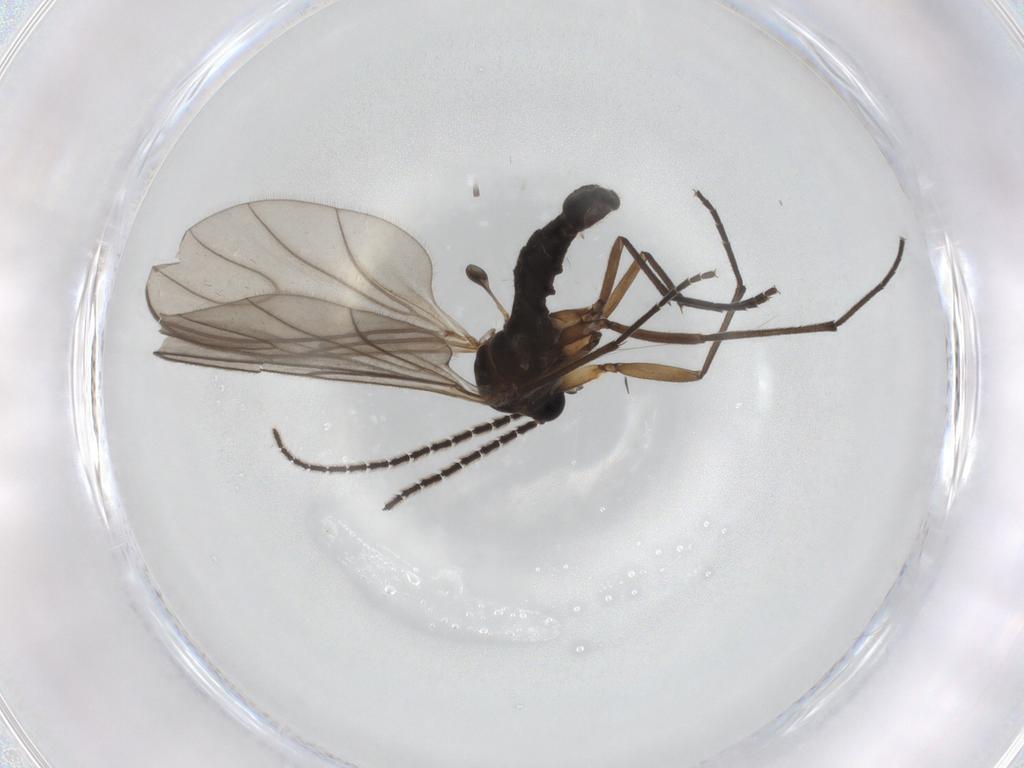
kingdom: Animalia
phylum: Arthropoda
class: Insecta
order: Diptera
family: Sciaridae
